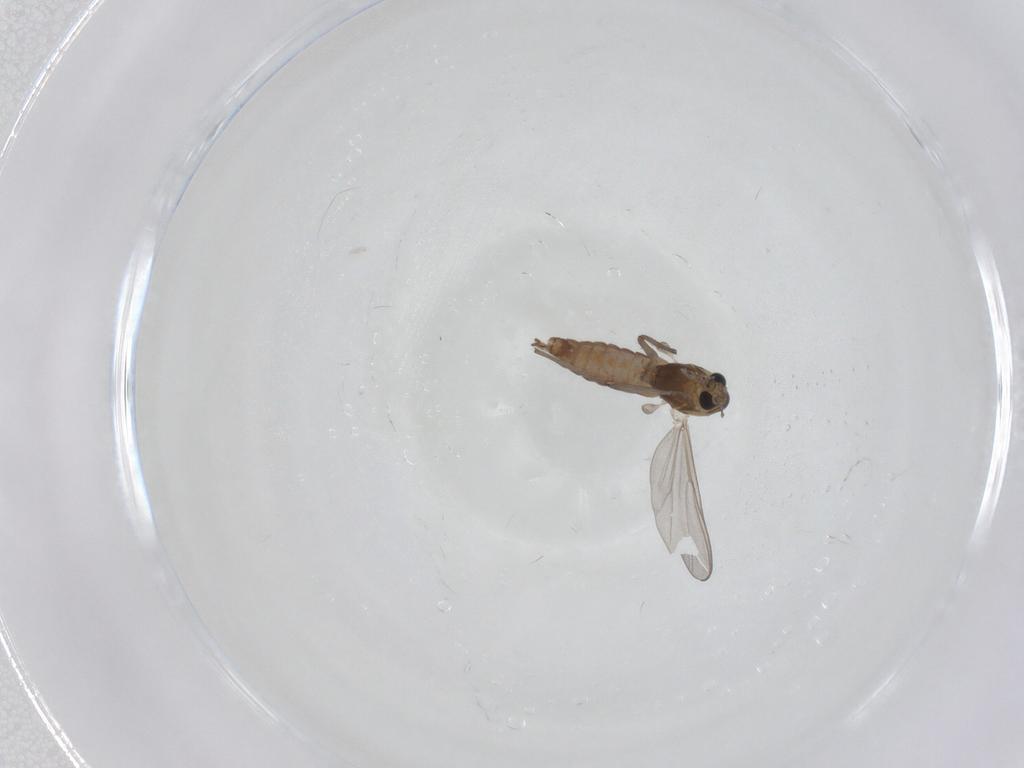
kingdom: Animalia
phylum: Arthropoda
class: Insecta
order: Diptera
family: Chironomidae
